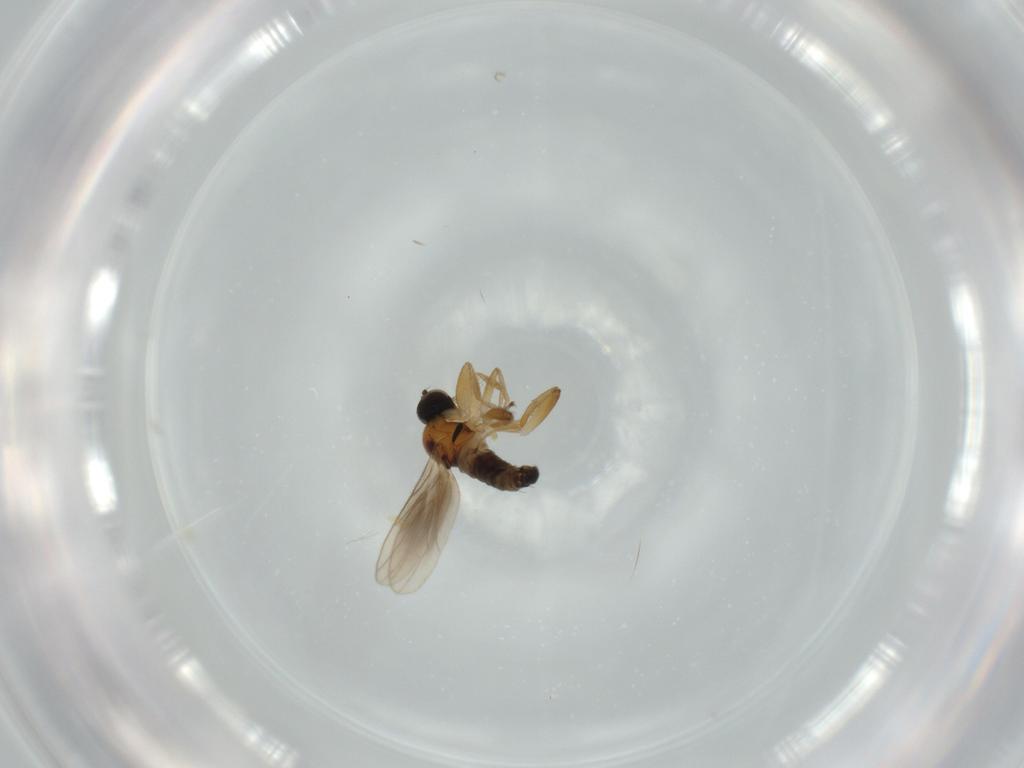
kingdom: Animalia
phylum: Arthropoda
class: Insecta
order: Diptera
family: Hybotidae
